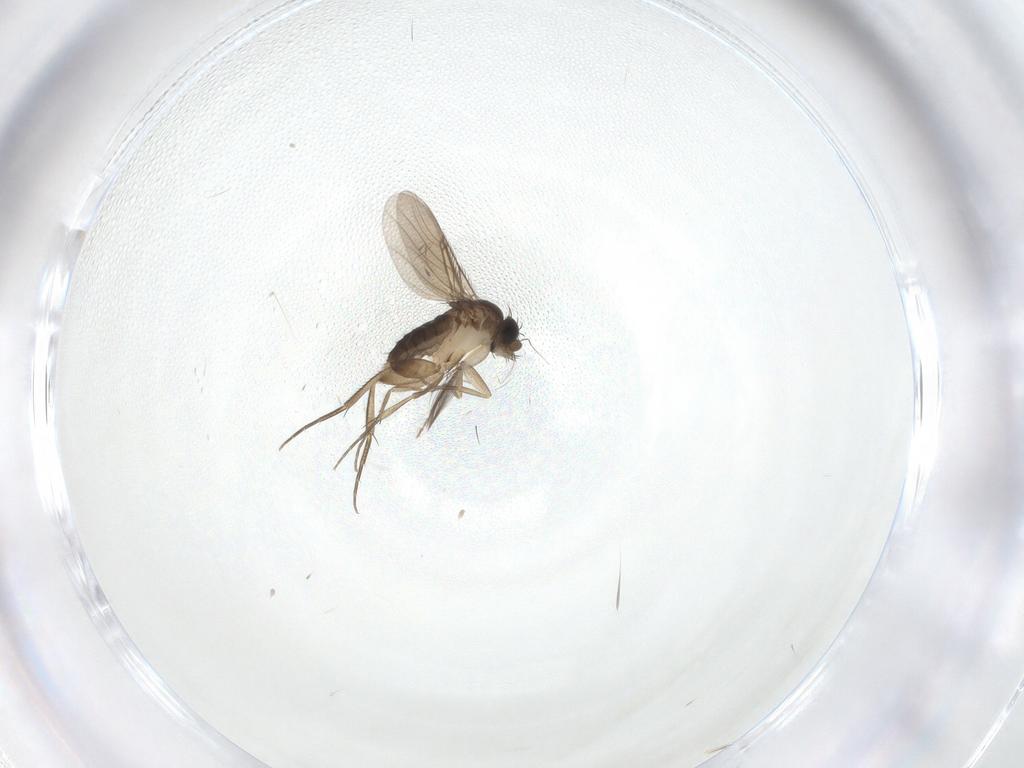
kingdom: Animalia
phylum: Arthropoda
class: Insecta
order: Diptera
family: Phoridae
